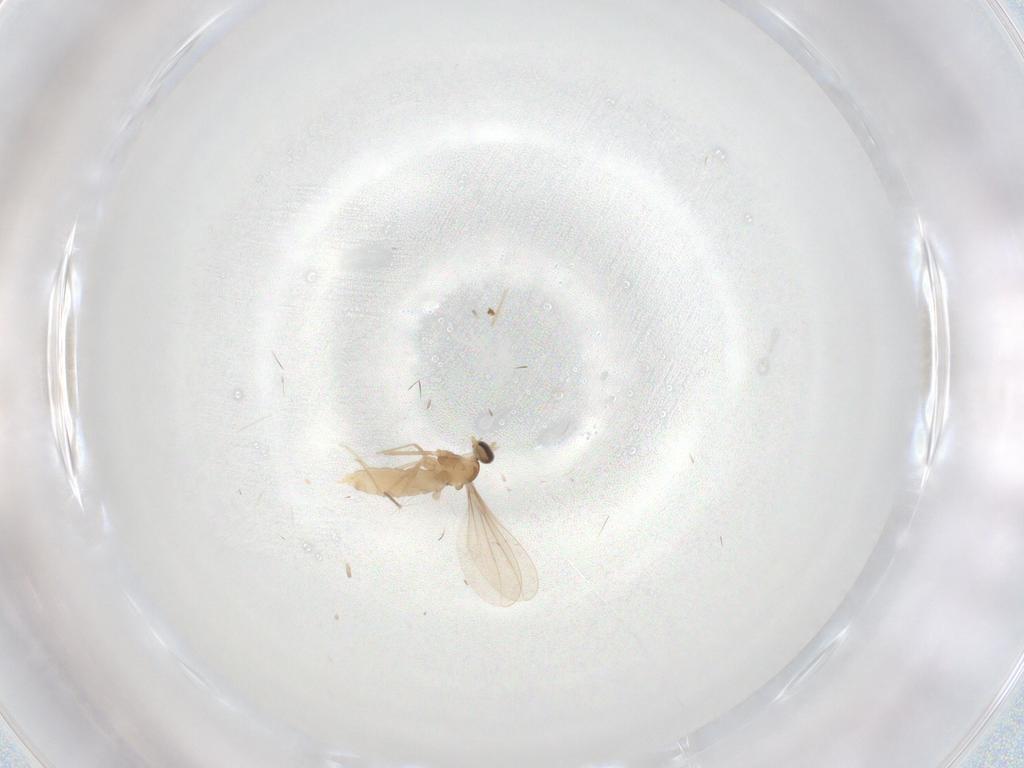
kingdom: Animalia
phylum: Arthropoda
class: Insecta
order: Diptera
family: Cecidomyiidae
